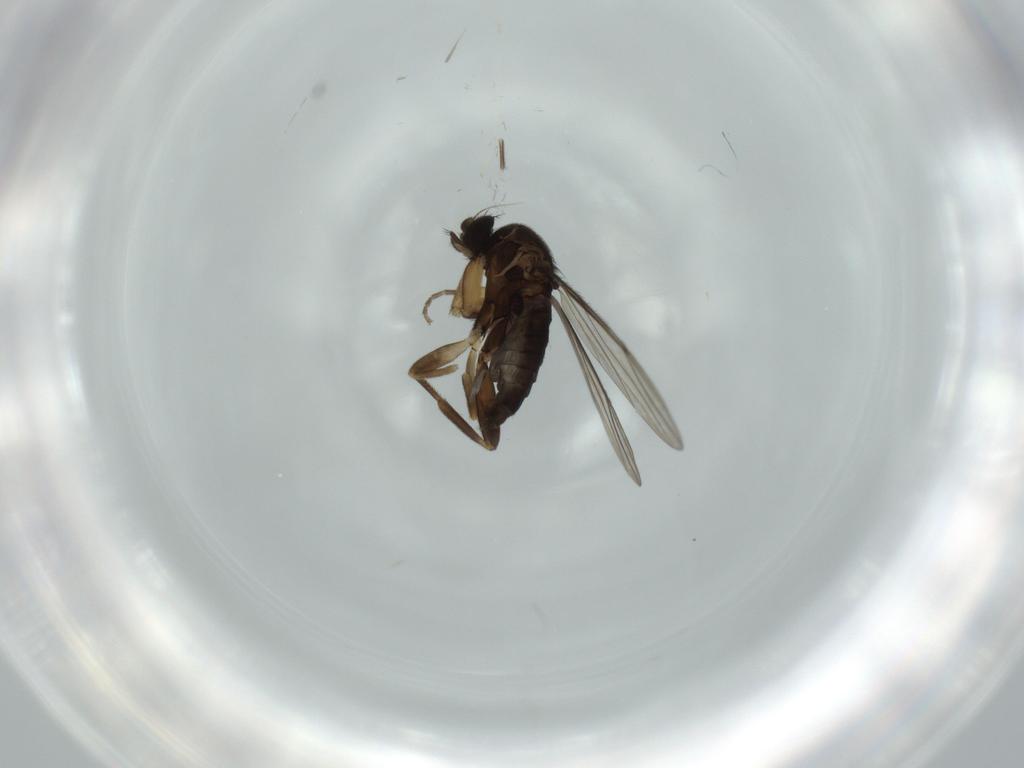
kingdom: Animalia
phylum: Arthropoda
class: Insecta
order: Diptera
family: Phoridae
